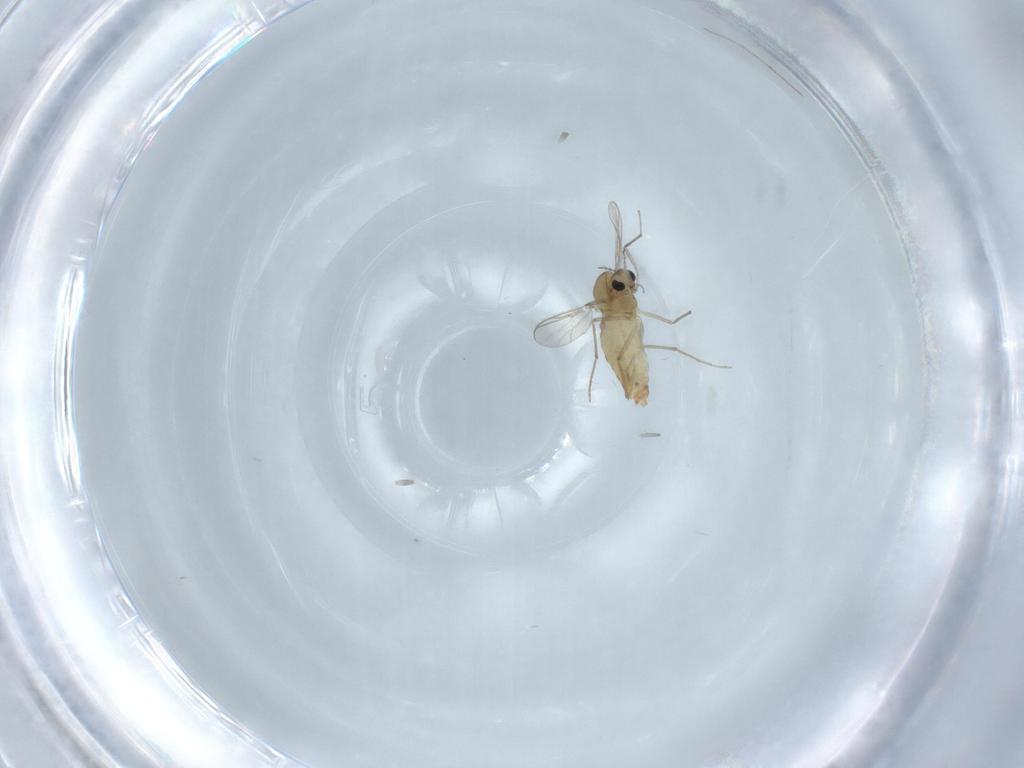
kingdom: Animalia
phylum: Arthropoda
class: Insecta
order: Diptera
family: Chironomidae
